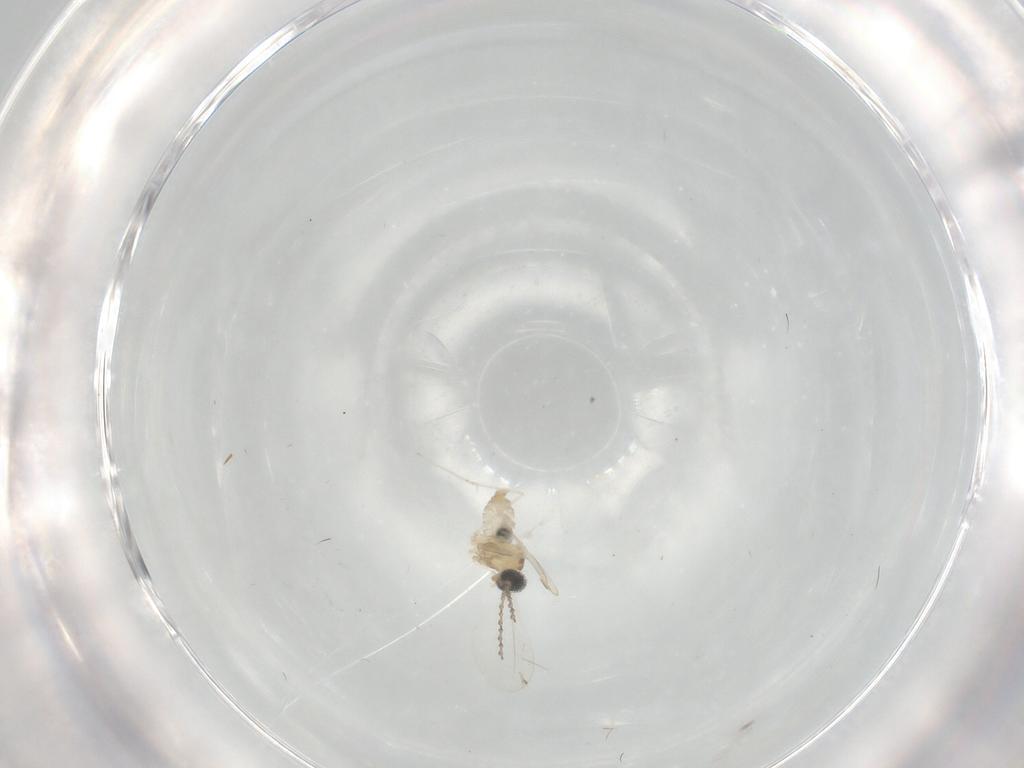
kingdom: Animalia
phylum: Arthropoda
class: Insecta
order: Diptera
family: Cecidomyiidae
